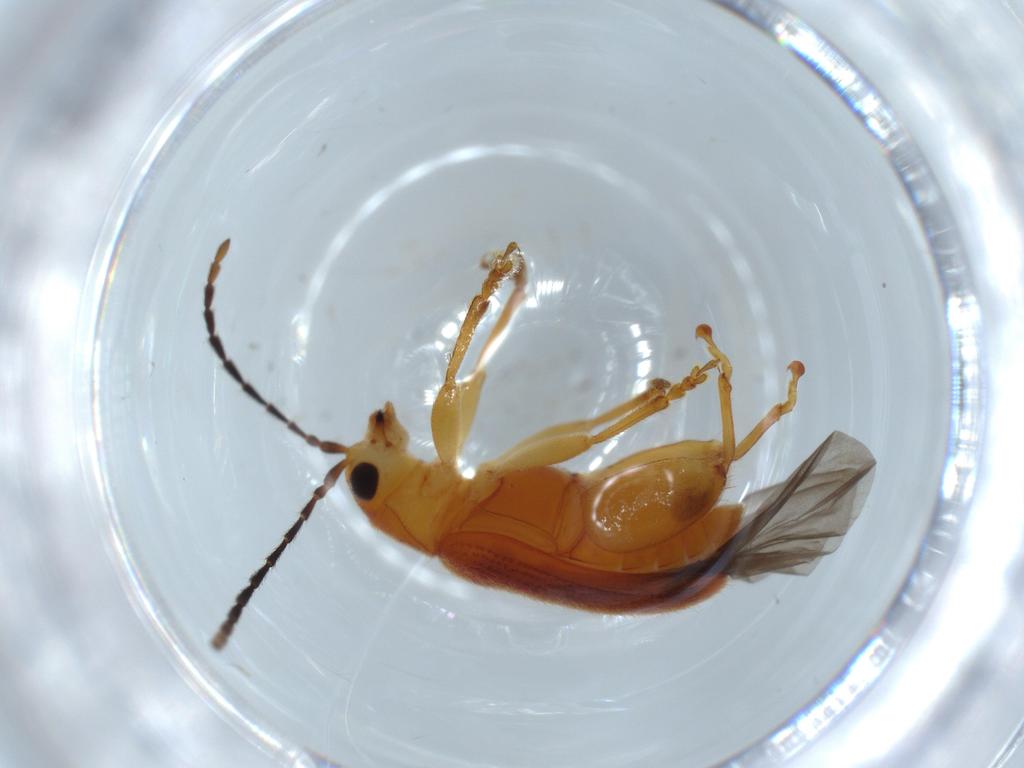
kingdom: Animalia
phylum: Arthropoda
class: Insecta
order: Coleoptera
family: Chrysomelidae
